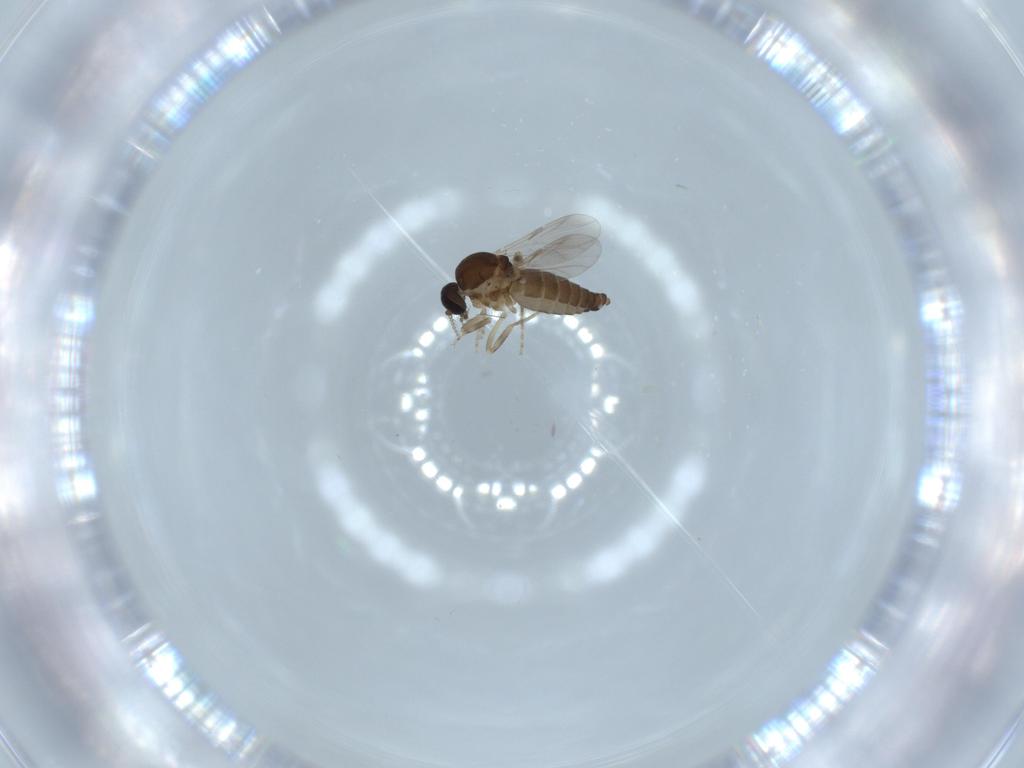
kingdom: Animalia
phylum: Arthropoda
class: Insecta
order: Diptera
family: Ceratopogonidae
